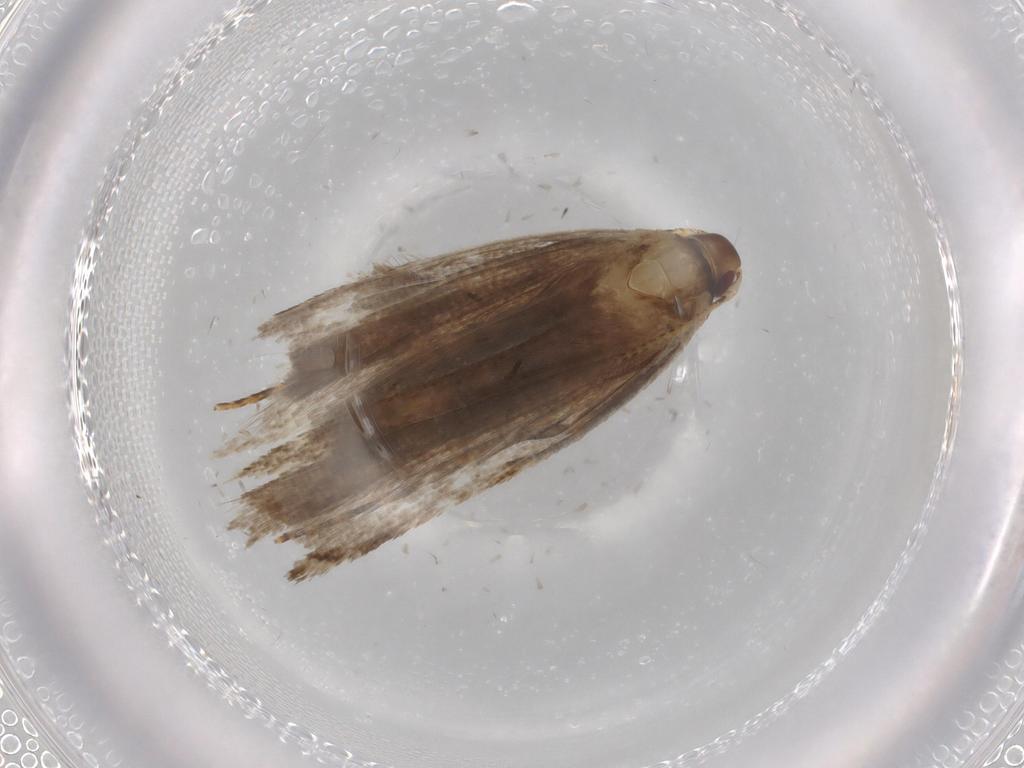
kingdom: Animalia
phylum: Arthropoda
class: Insecta
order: Lepidoptera
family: Gelechiidae
